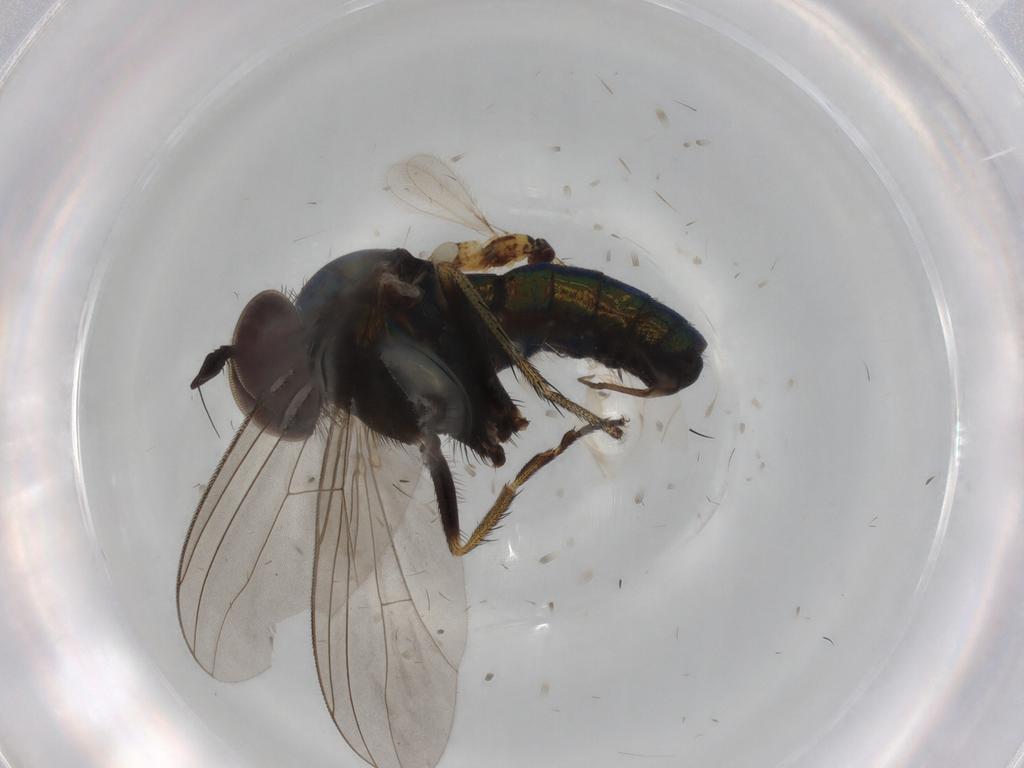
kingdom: Animalia
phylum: Arthropoda
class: Insecta
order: Diptera
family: Dolichopodidae
